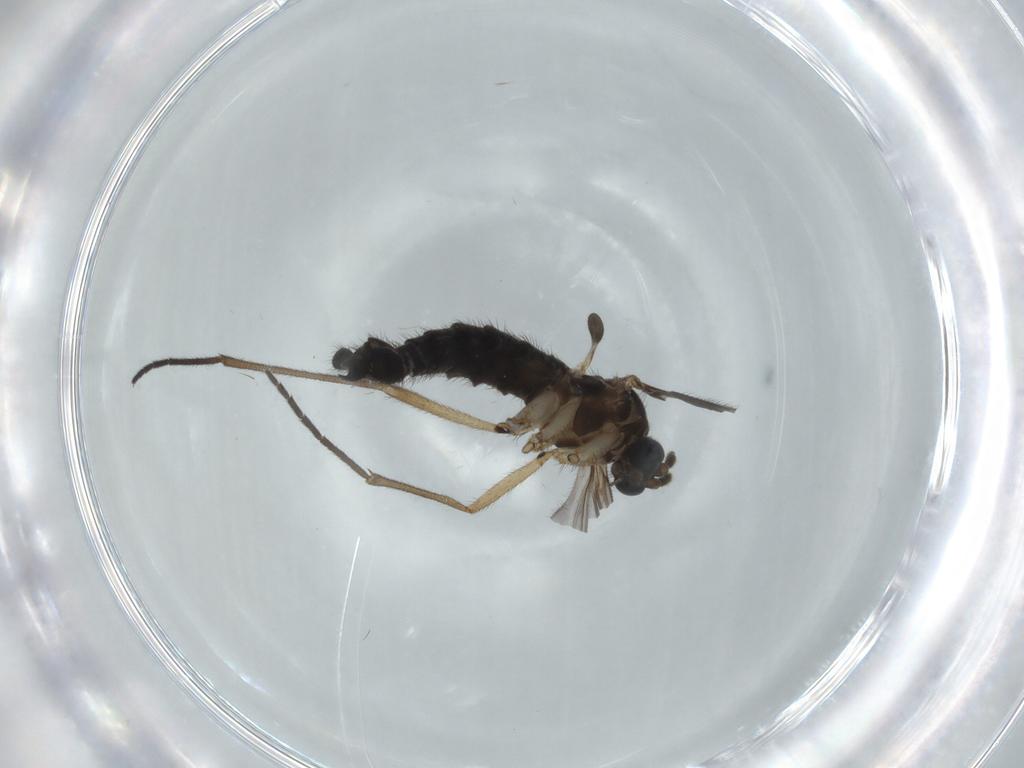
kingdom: Animalia
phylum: Arthropoda
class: Insecta
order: Diptera
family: Sciaridae
